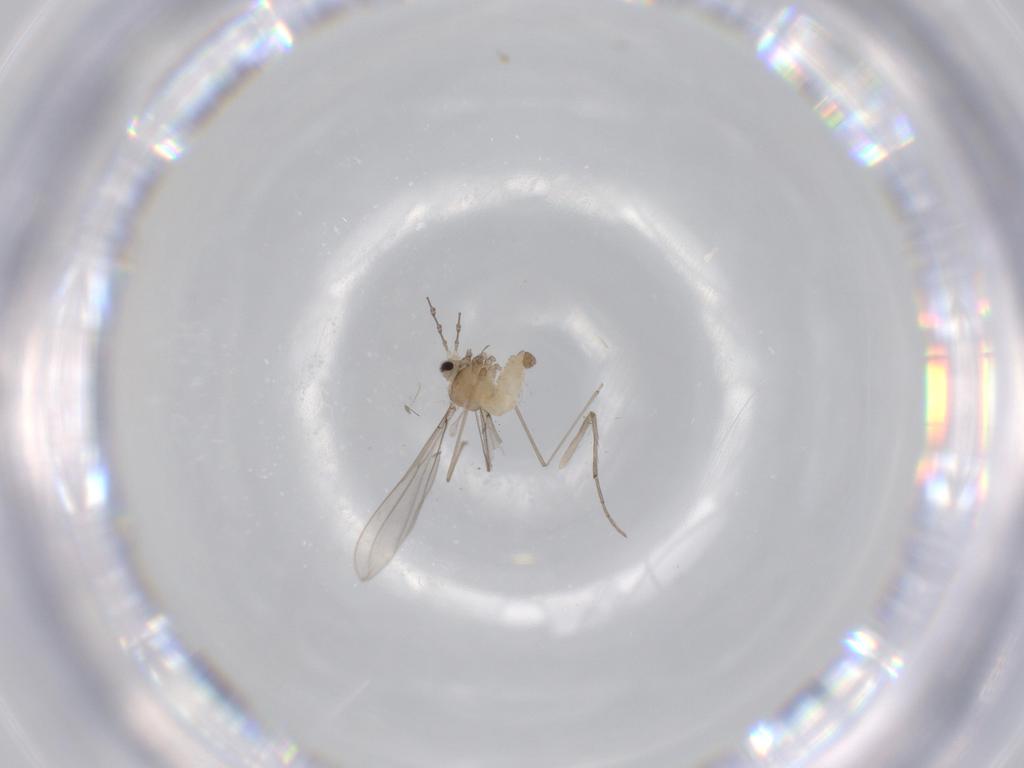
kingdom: Animalia
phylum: Arthropoda
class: Insecta
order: Diptera
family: Cecidomyiidae
